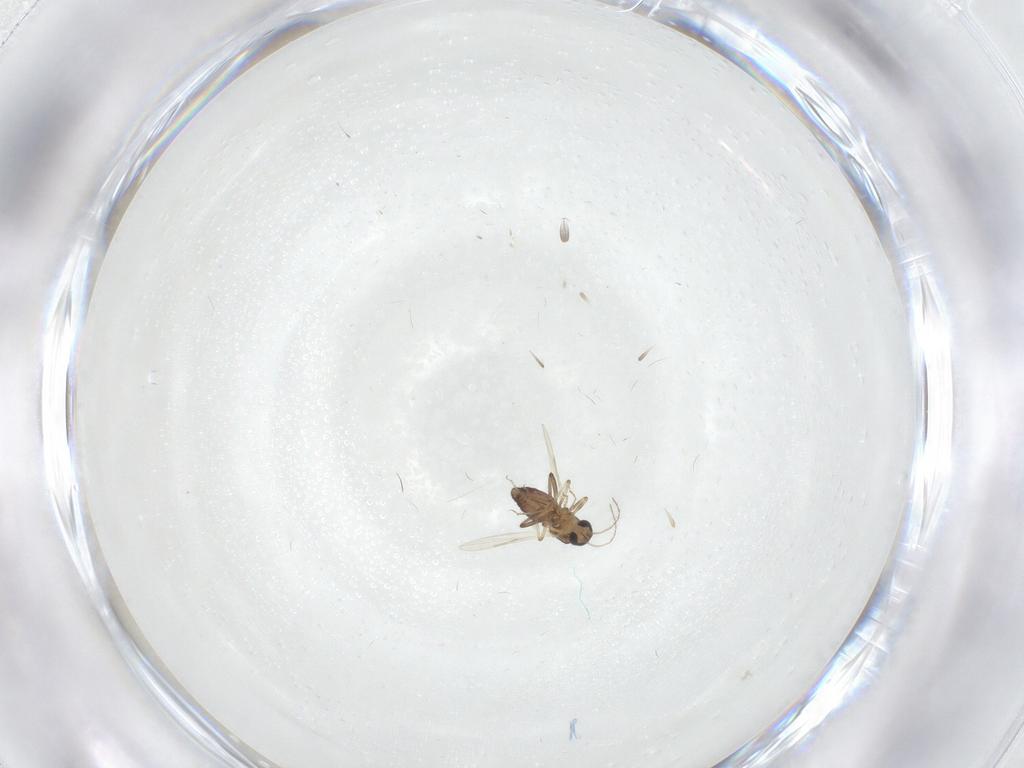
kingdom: Animalia
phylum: Arthropoda
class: Insecta
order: Diptera
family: Ceratopogonidae
